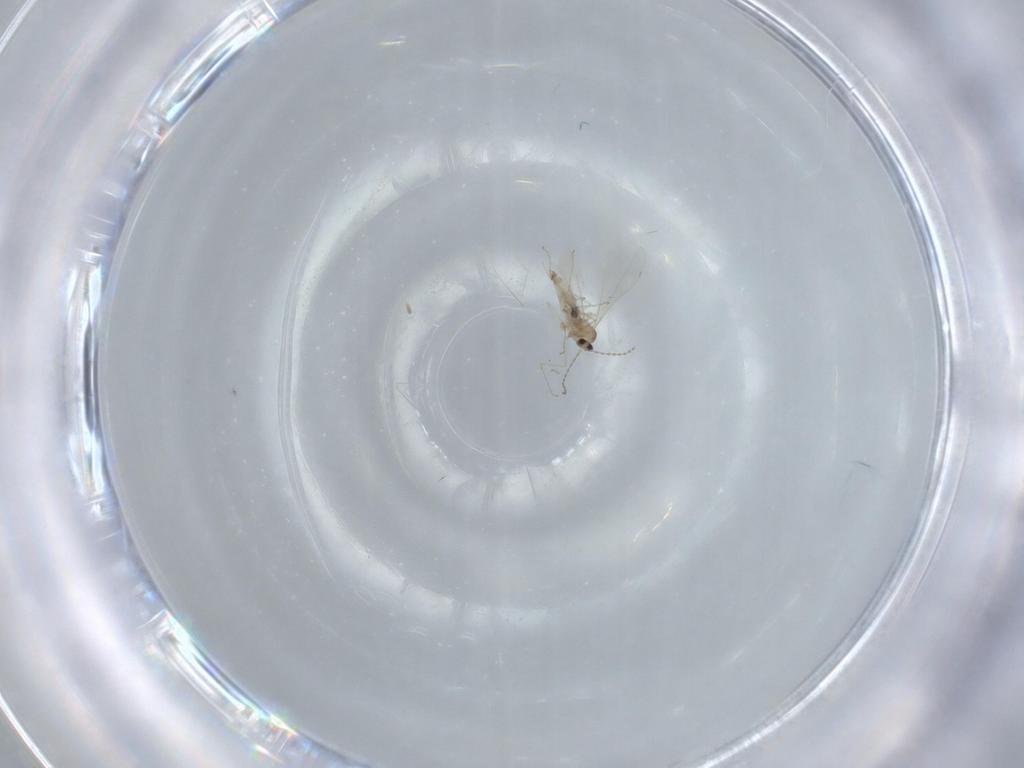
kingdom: Animalia
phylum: Arthropoda
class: Insecta
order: Diptera
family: Cecidomyiidae
